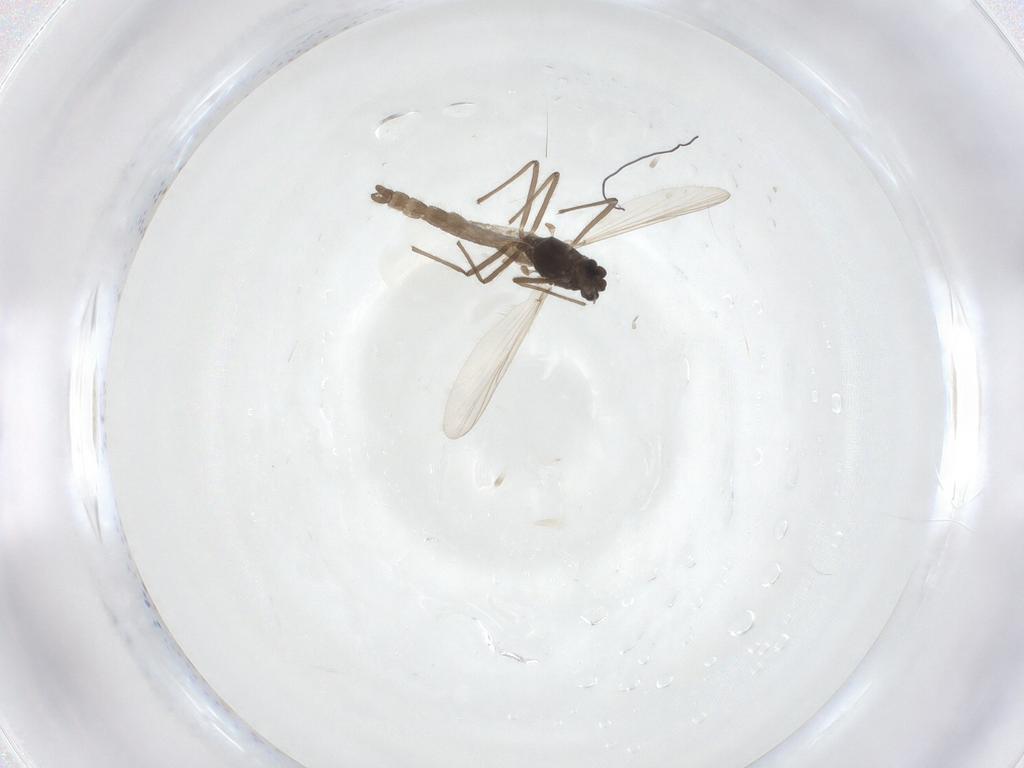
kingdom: Animalia
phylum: Arthropoda
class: Insecta
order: Diptera
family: Chironomidae
